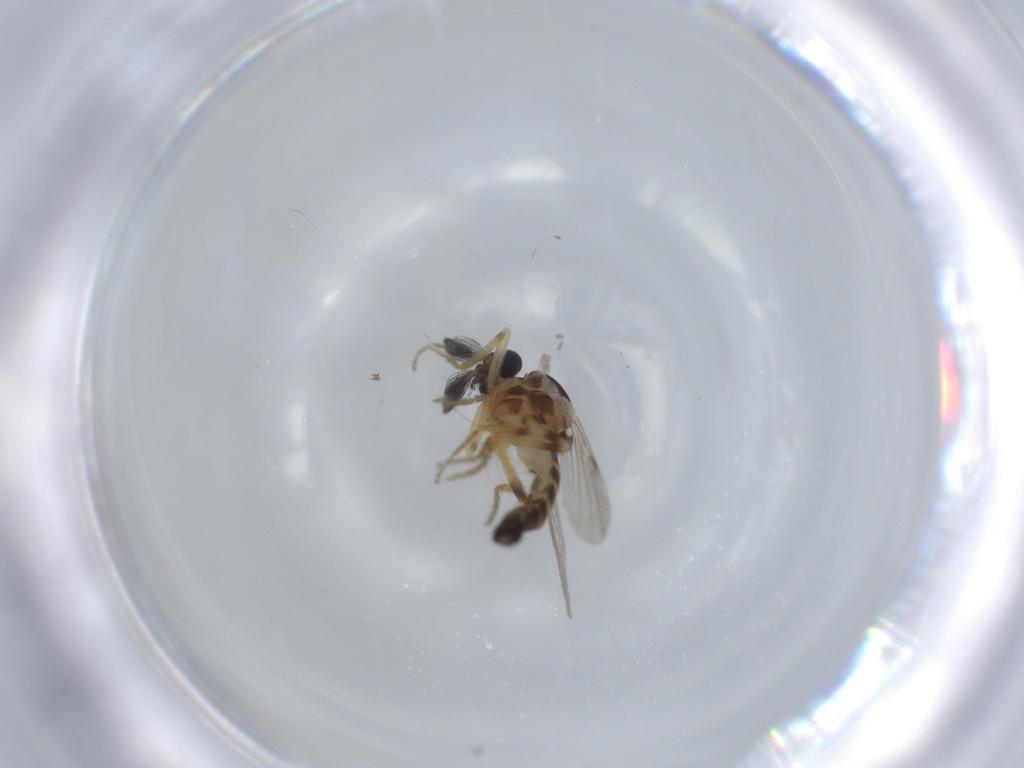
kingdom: Animalia
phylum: Arthropoda
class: Insecta
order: Diptera
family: Ceratopogonidae
